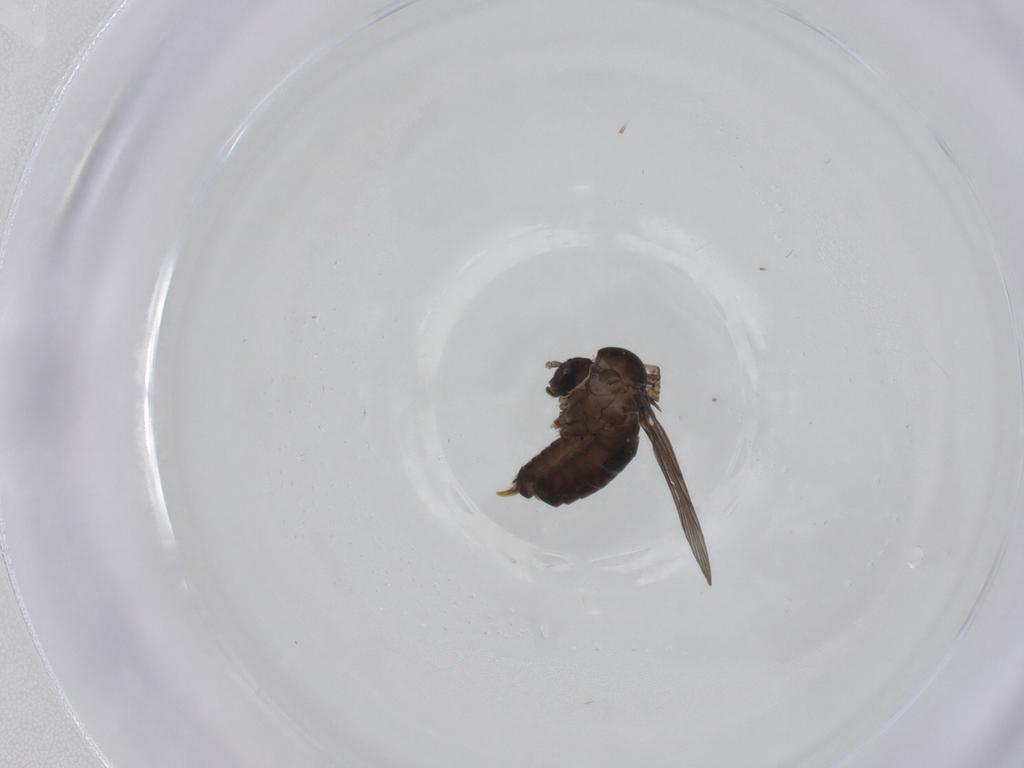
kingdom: Animalia
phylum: Arthropoda
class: Insecta
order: Diptera
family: Psychodidae
